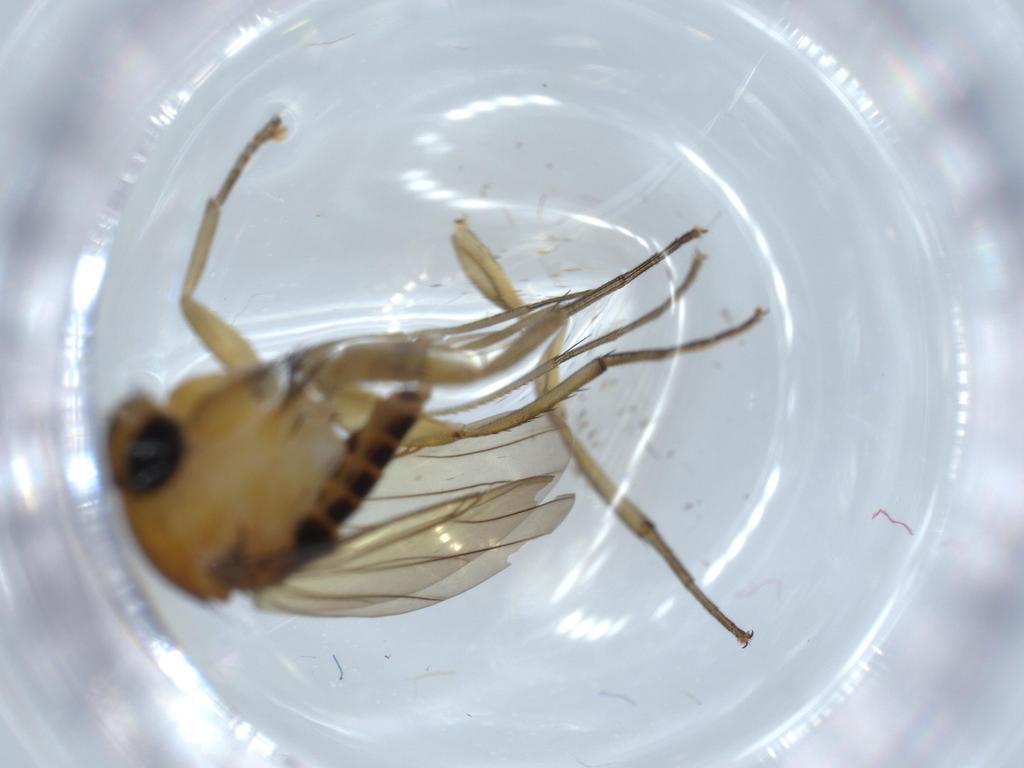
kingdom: Animalia
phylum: Arthropoda
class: Insecta
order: Diptera
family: Phoridae
